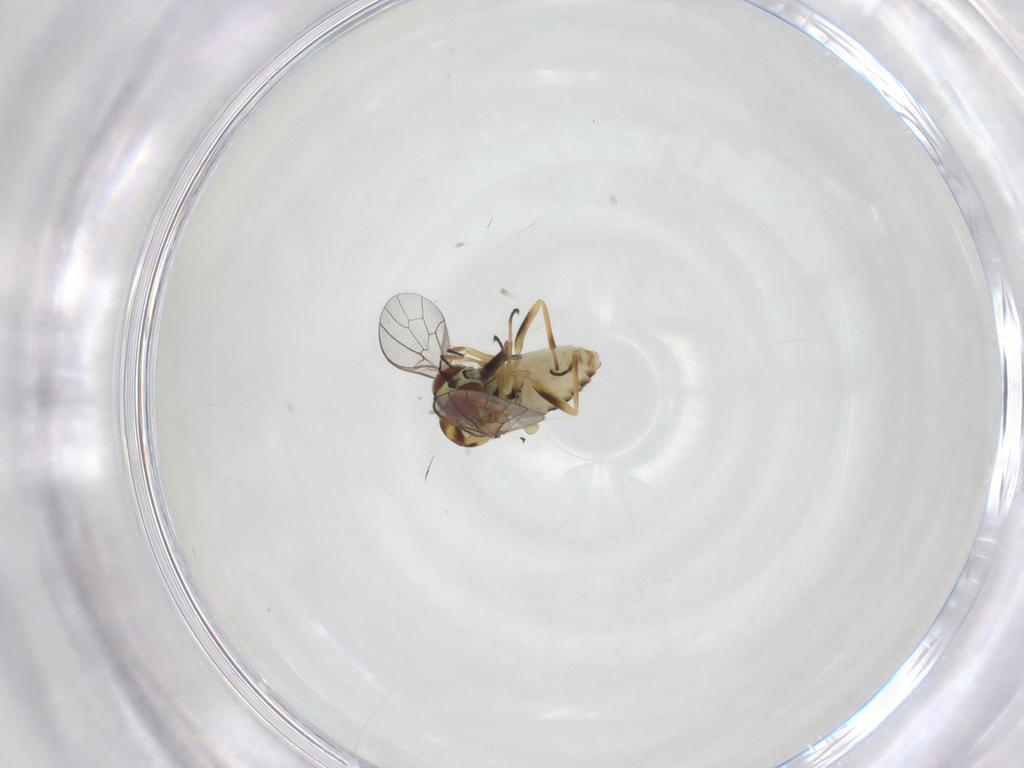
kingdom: Animalia
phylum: Arthropoda
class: Insecta
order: Diptera
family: Bombyliidae
